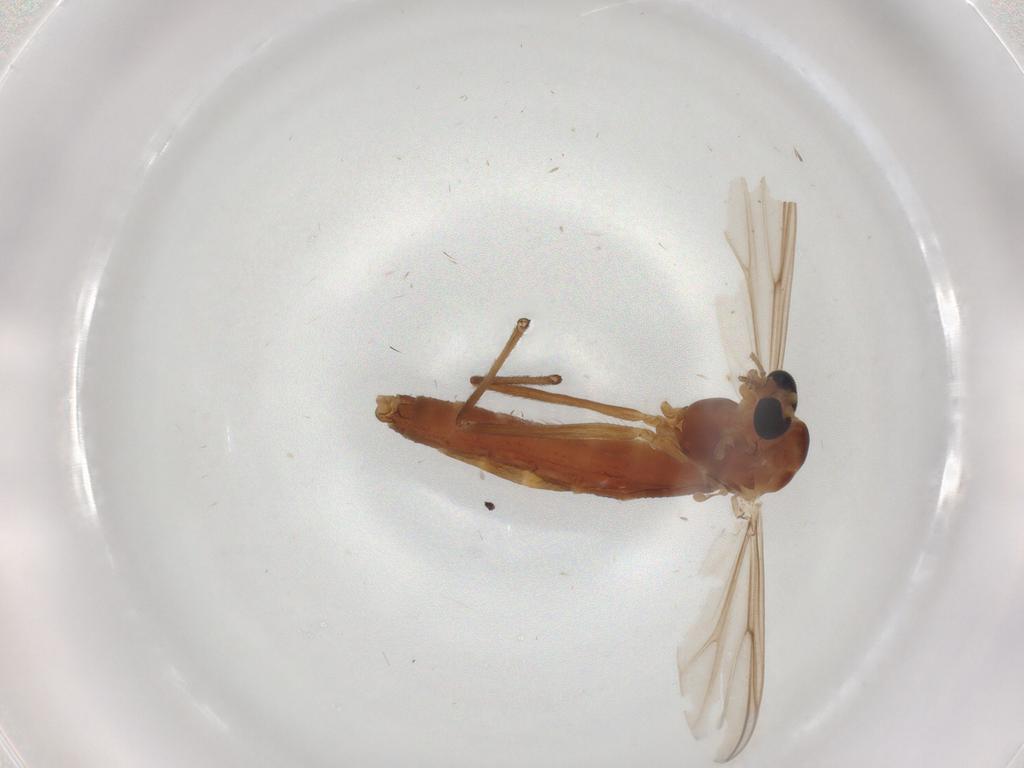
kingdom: Animalia
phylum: Arthropoda
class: Insecta
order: Diptera
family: Cecidomyiidae
